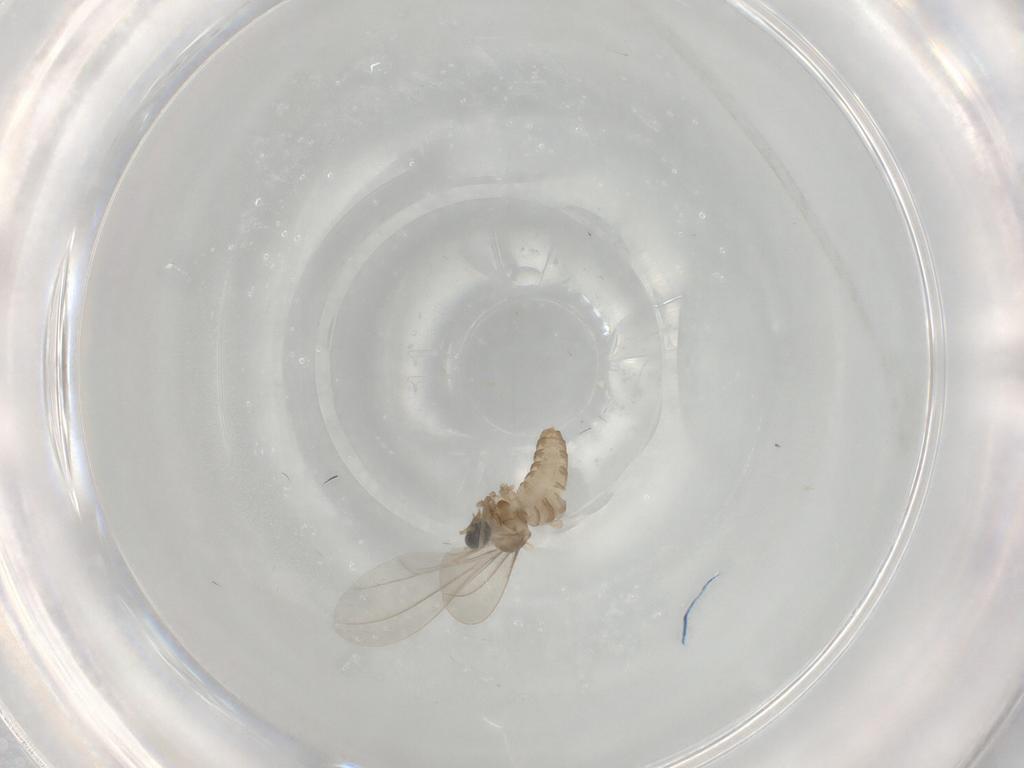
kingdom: Animalia
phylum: Arthropoda
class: Insecta
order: Diptera
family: Cecidomyiidae
